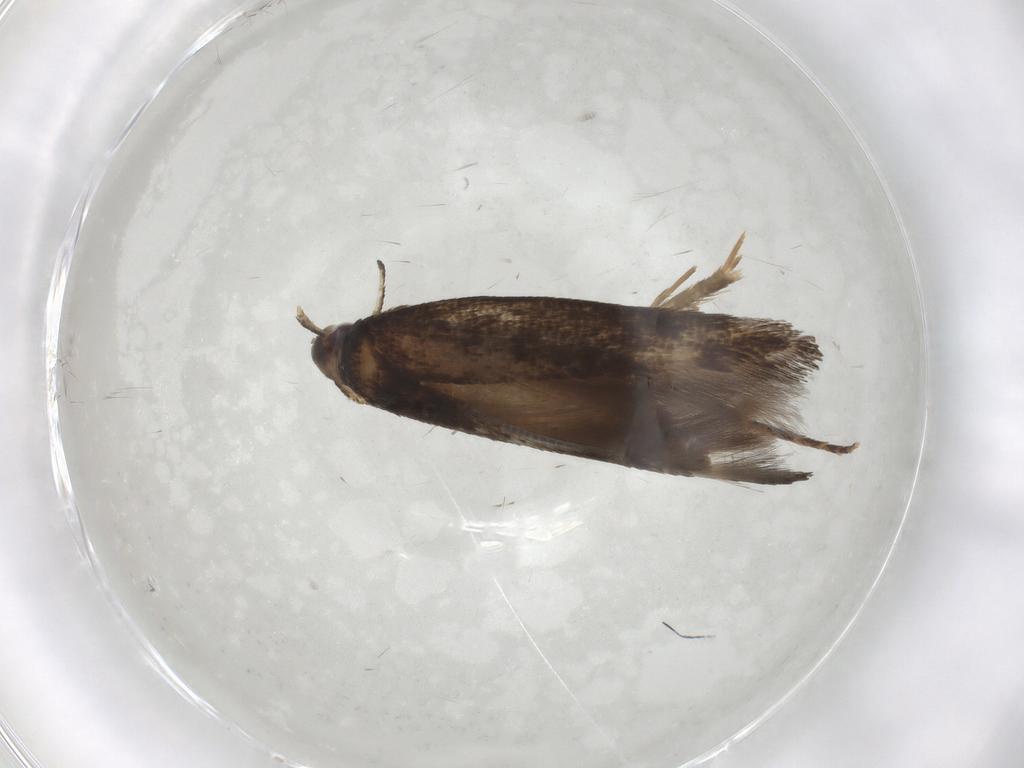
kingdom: Animalia
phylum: Arthropoda
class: Insecta
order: Lepidoptera
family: Cosmopterigidae
